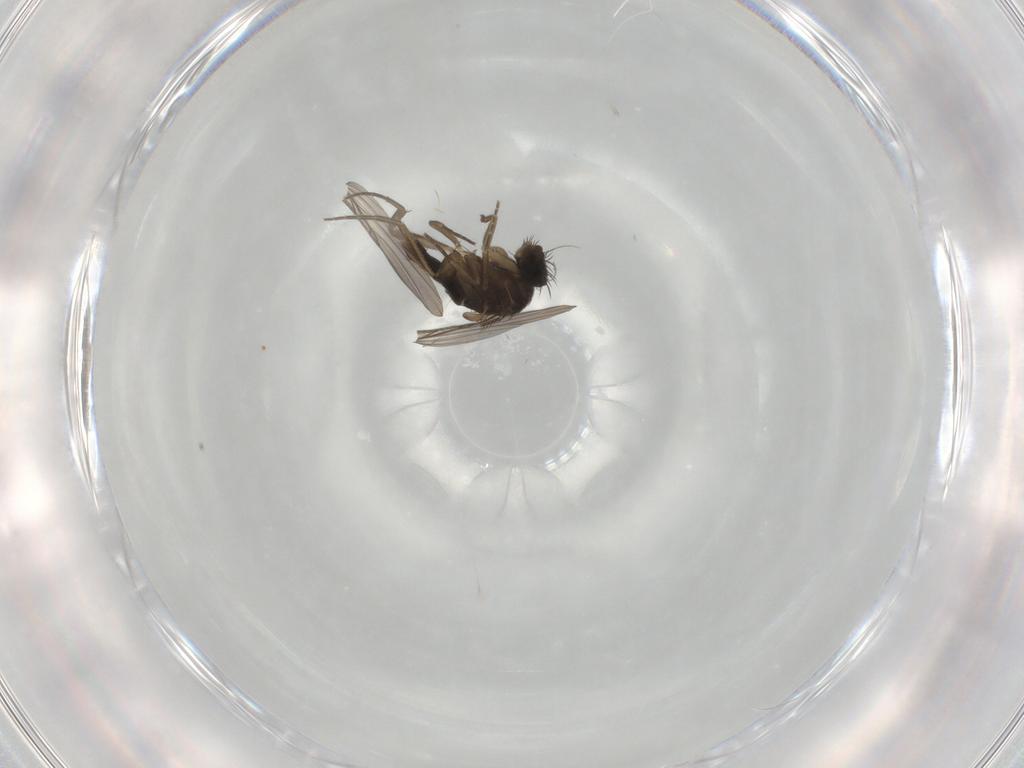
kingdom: Animalia
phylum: Arthropoda
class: Insecta
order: Diptera
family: Phoridae
